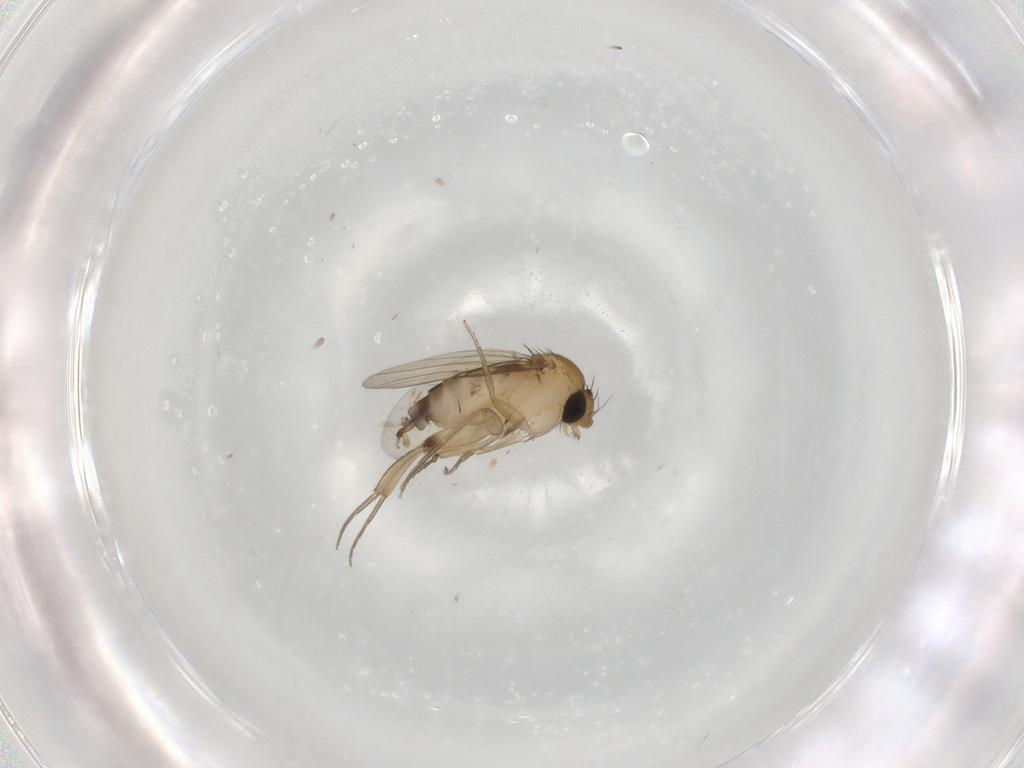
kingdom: Animalia
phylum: Arthropoda
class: Insecta
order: Diptera
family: Phoridae
